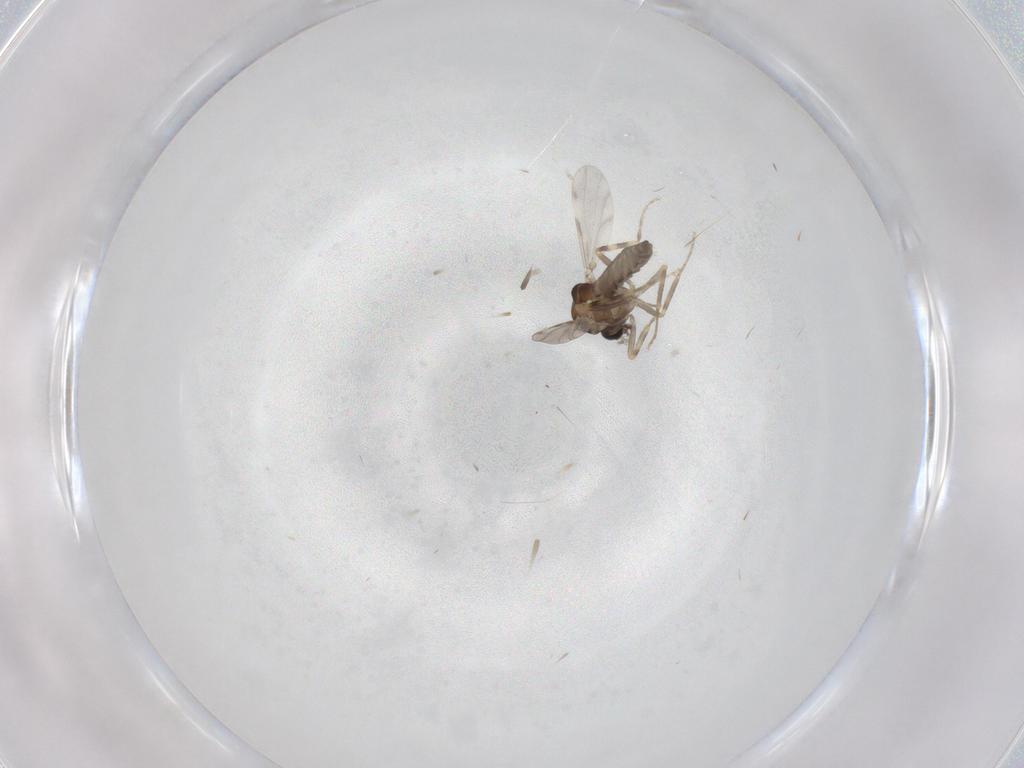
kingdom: Animalia
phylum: Arthropoda
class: Insecta
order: Diptera
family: Ceratopogonidae
